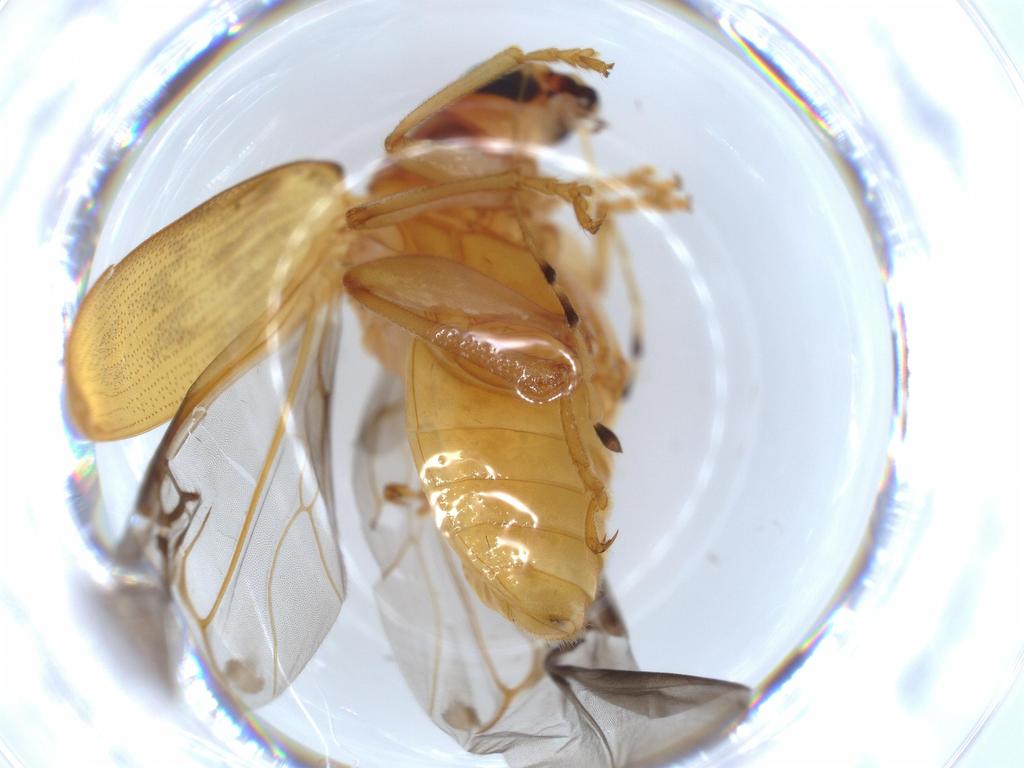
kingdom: Animalia
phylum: Arthropoda
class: Insecta
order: Coleoptera
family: Chrysomelidae
